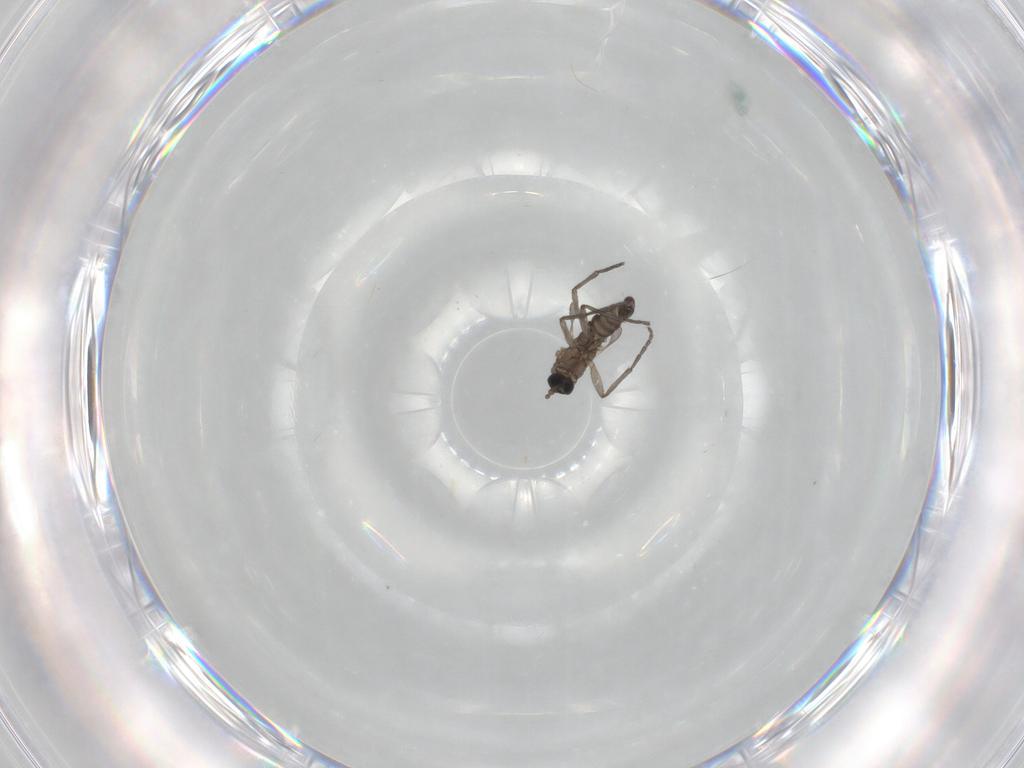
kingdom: Animalia
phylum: Arthropoda
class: Insecta
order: Diptera
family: Sciaridae
